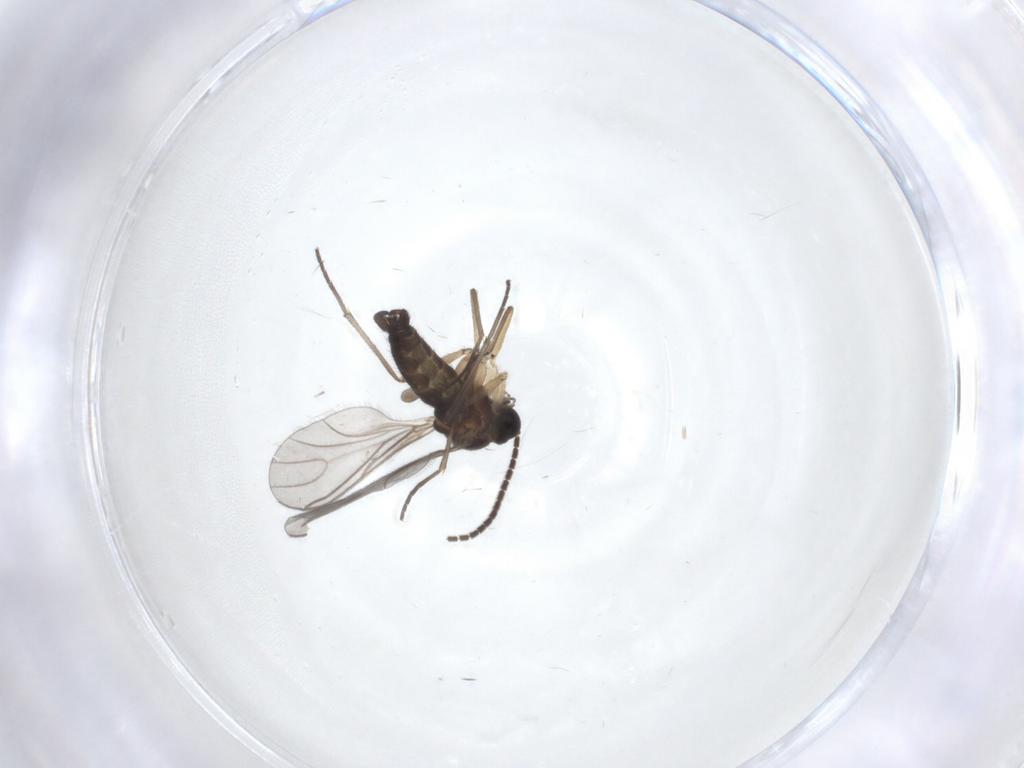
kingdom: Animalia
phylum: Arthropoda
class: Insecta
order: Diptera
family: Sciaridae
